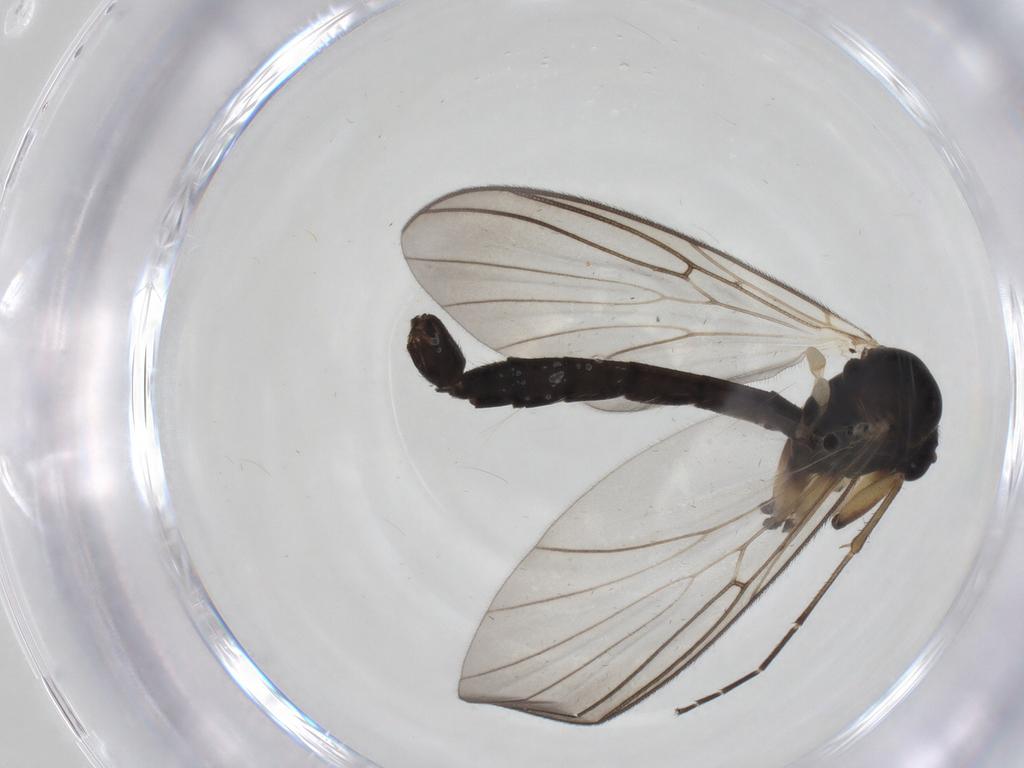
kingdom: Animalia
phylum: Arthropoda
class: Insecta
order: Diptera
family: Mycetophilidae
